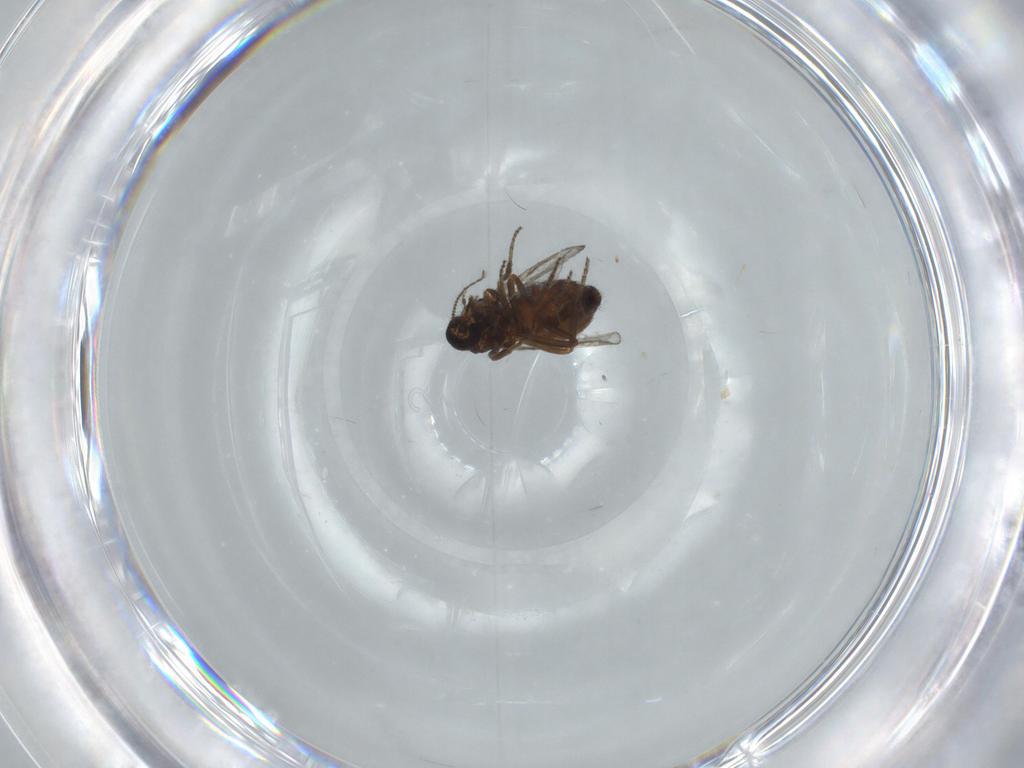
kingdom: Animalia
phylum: Arthropoda
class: Insecta
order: Diptera
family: Ceratopogonidae
